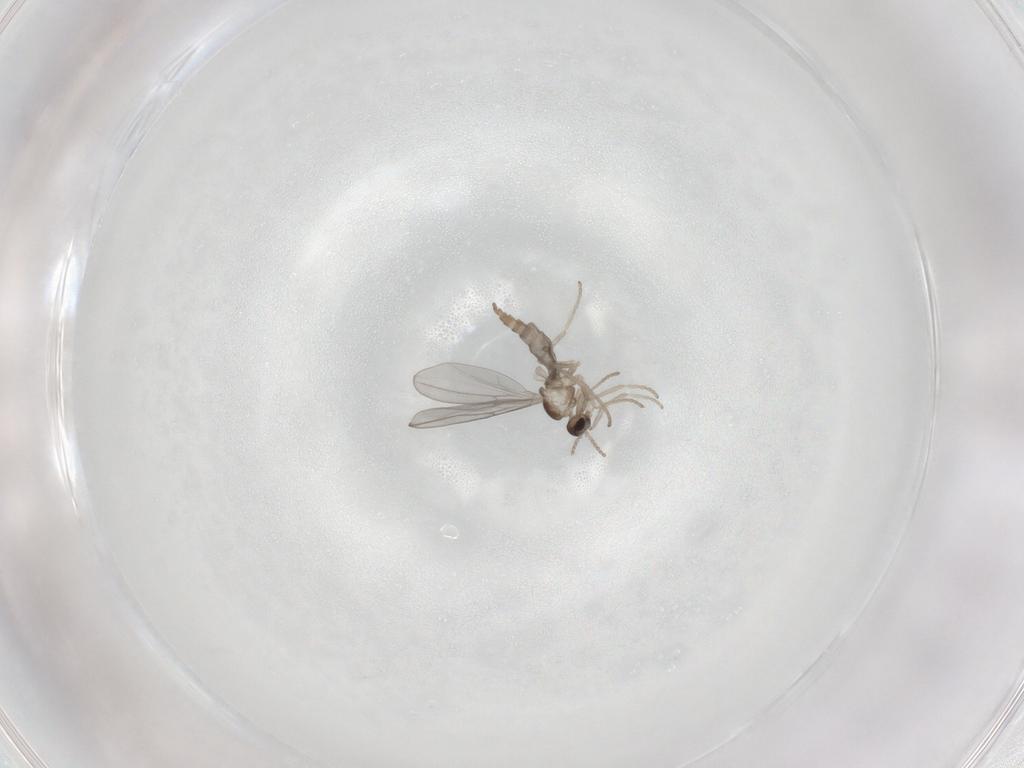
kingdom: Animalia
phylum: Arthropoda
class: Insecta
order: Diptera
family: Cecidomyiidae
